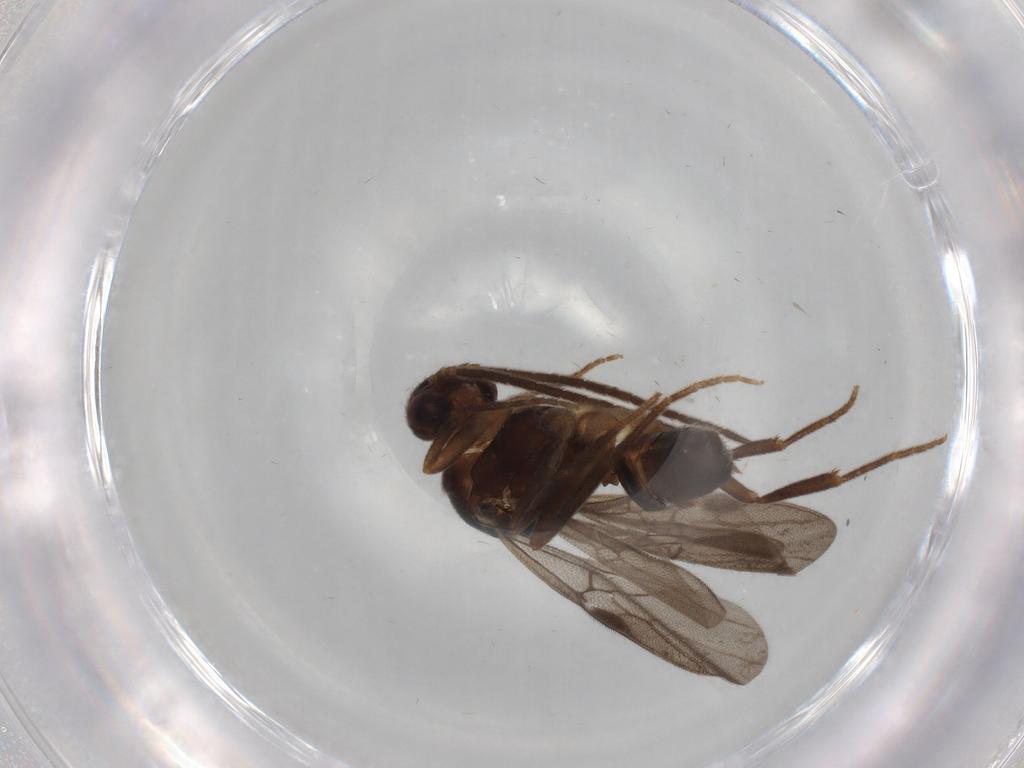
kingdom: Animalia
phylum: Arthropoda
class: Insecta
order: Hymenoptera
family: Formicidae
